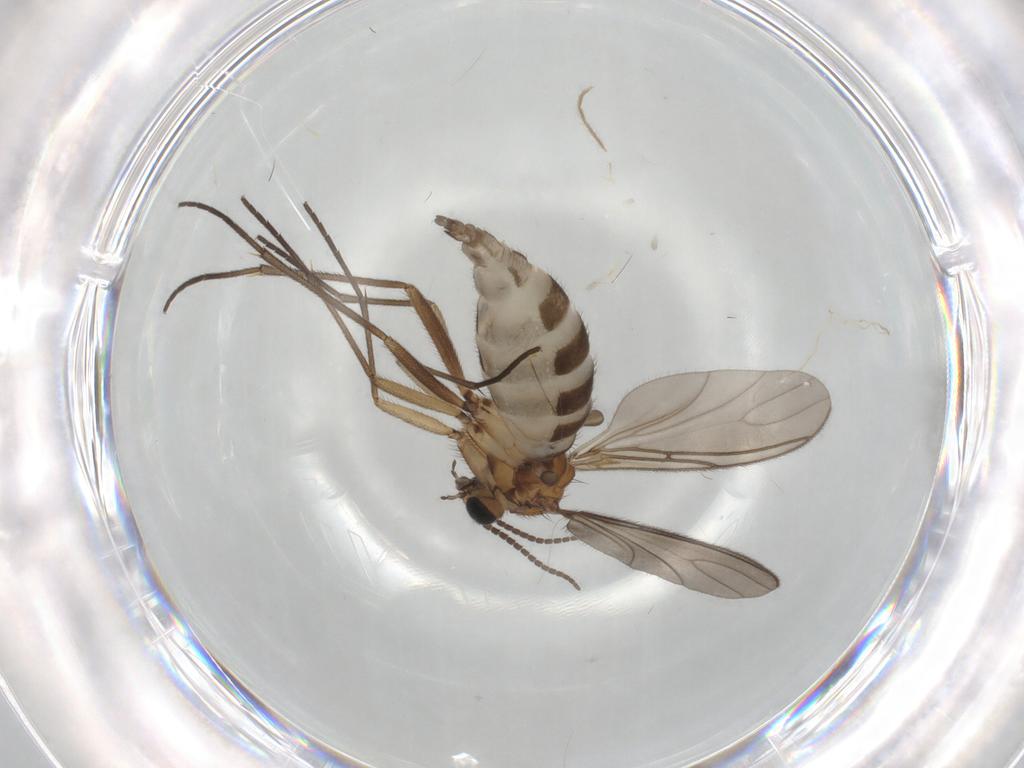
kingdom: Animalia
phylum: Arthropoda
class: Insecta
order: Diptera
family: Sciaridae
